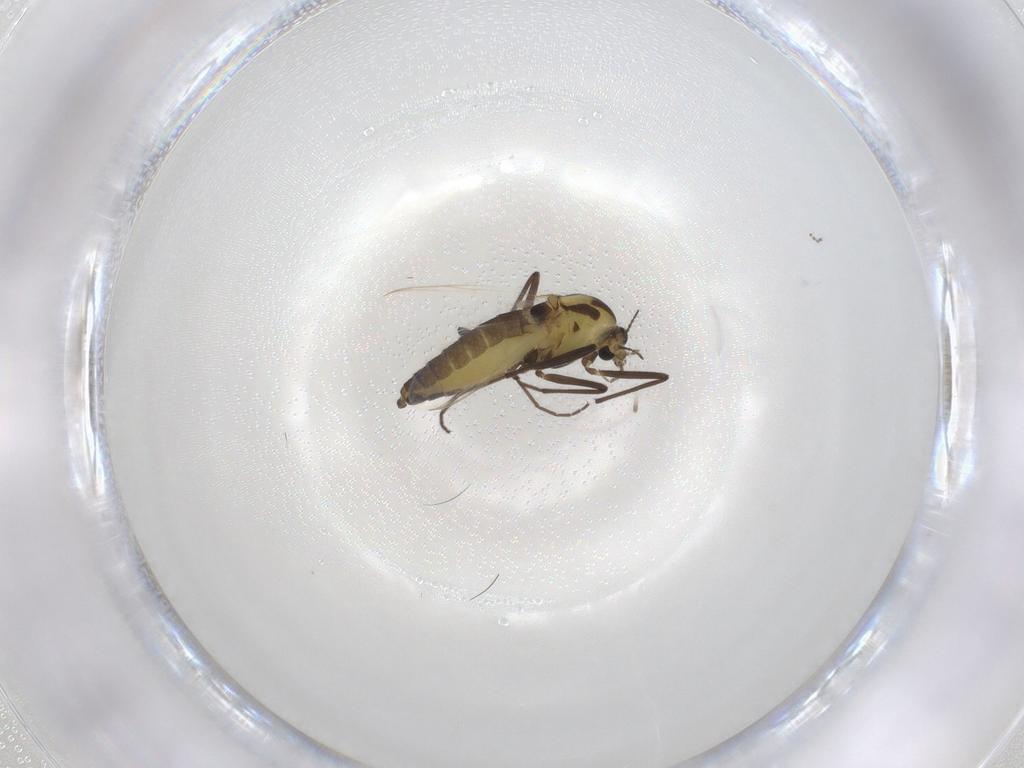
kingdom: Animalia
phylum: Arthropoda
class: Insecta
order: Diptera
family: Chironomidae
